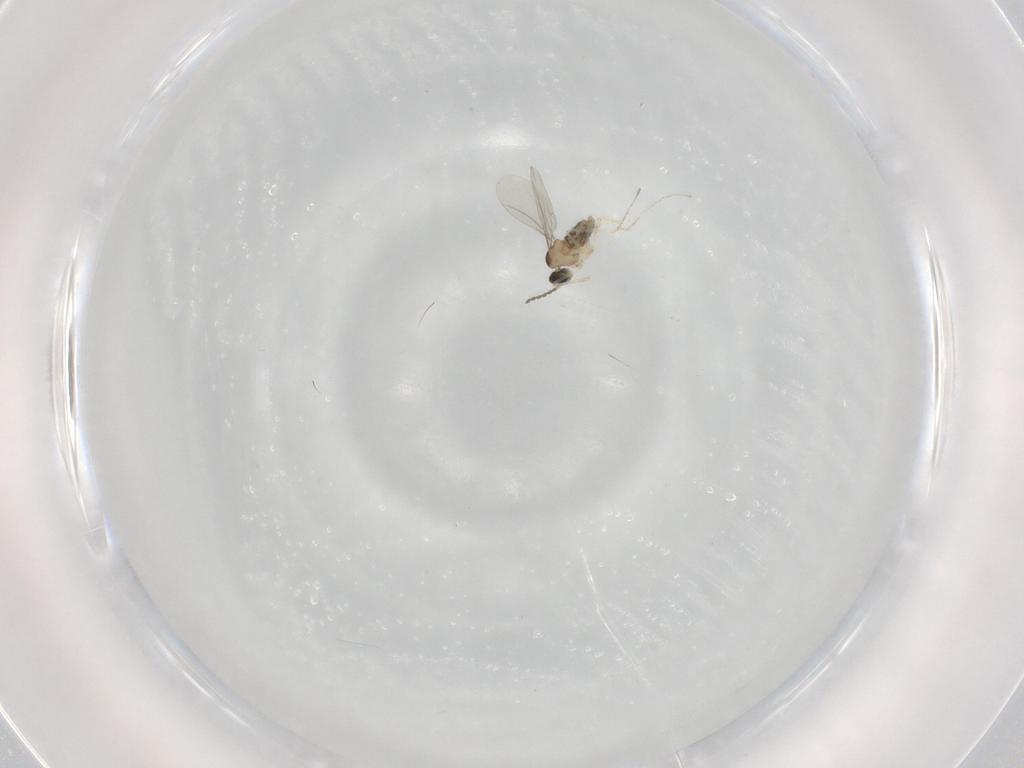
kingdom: Animalia
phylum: Arthropoda
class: Insecta
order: Diptera
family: Cecidomyiidae
